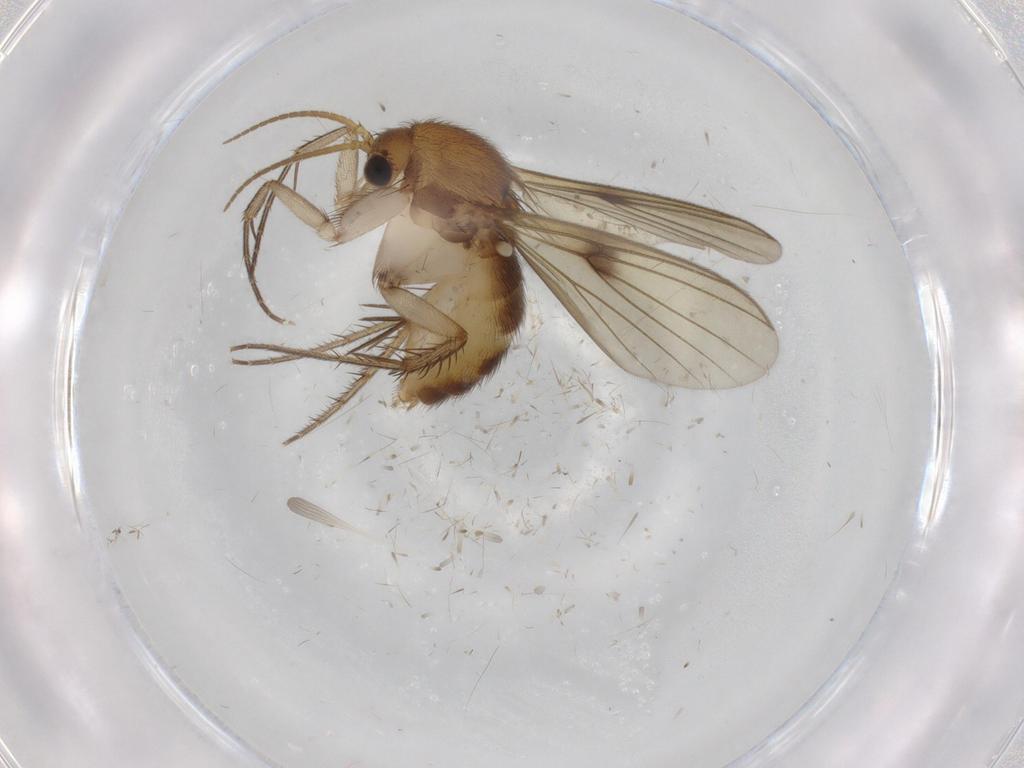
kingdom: Animalia
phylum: Arthropoda
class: Insecta
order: Diptera
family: Mycetophilidae
